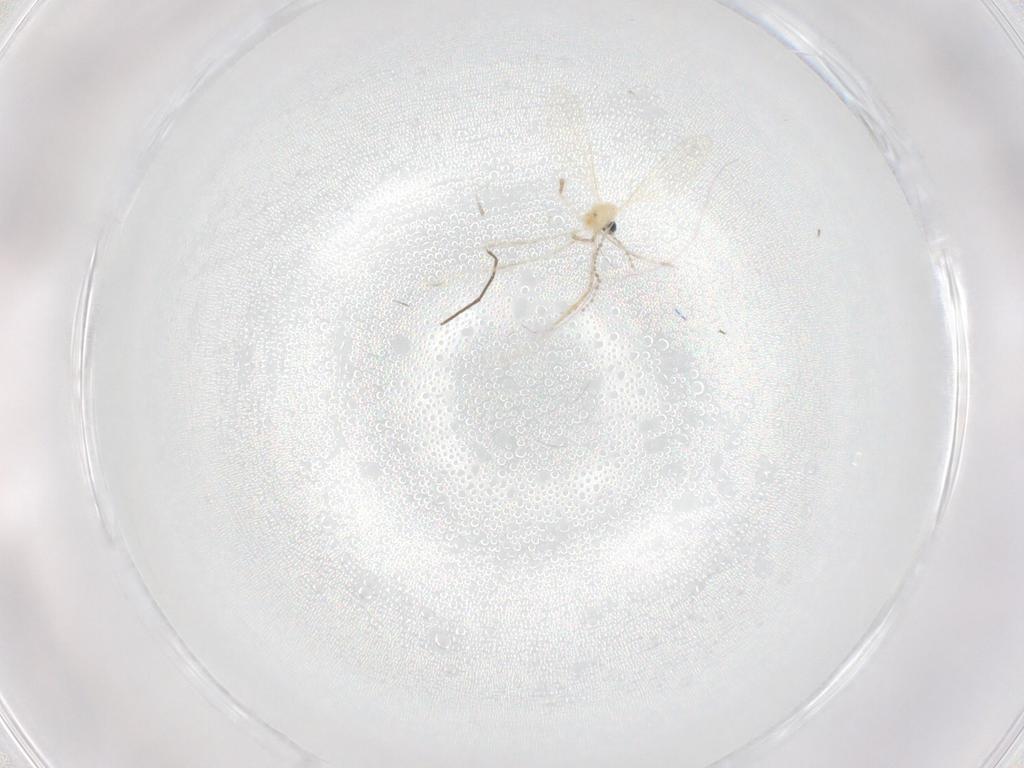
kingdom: Animalia
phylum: Arthropoda
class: Insecta
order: Diptera
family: Cecidomyiidae
